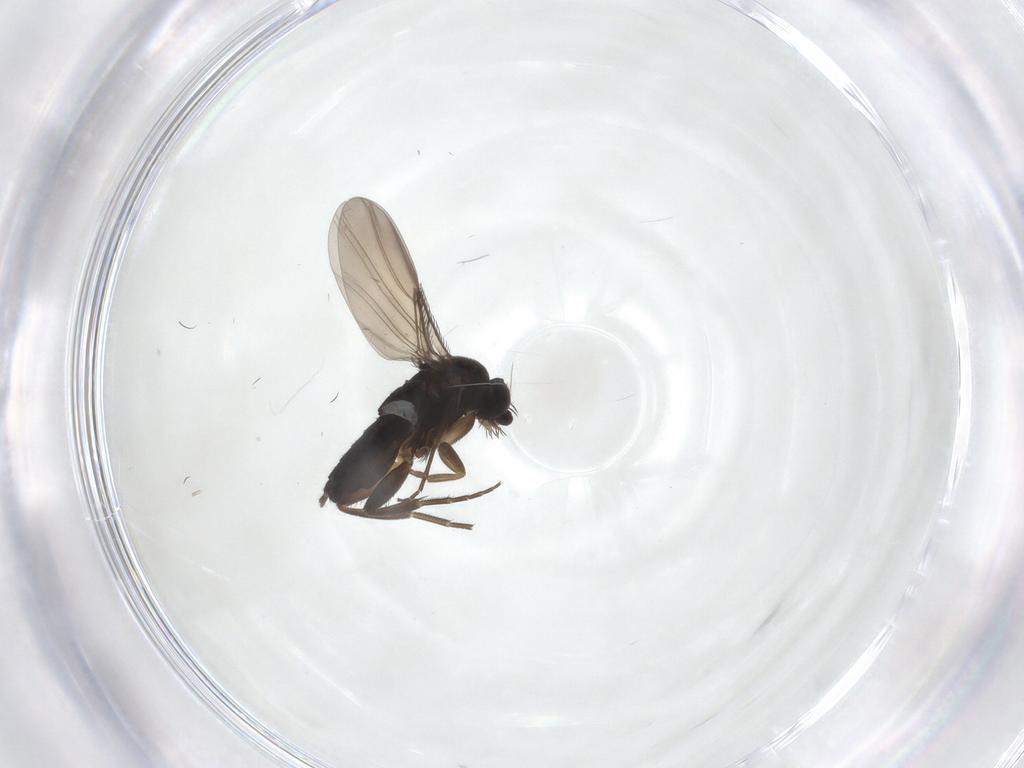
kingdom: Animalia
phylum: Arthropoda
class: Insecta
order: Diptera
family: Phoridae
